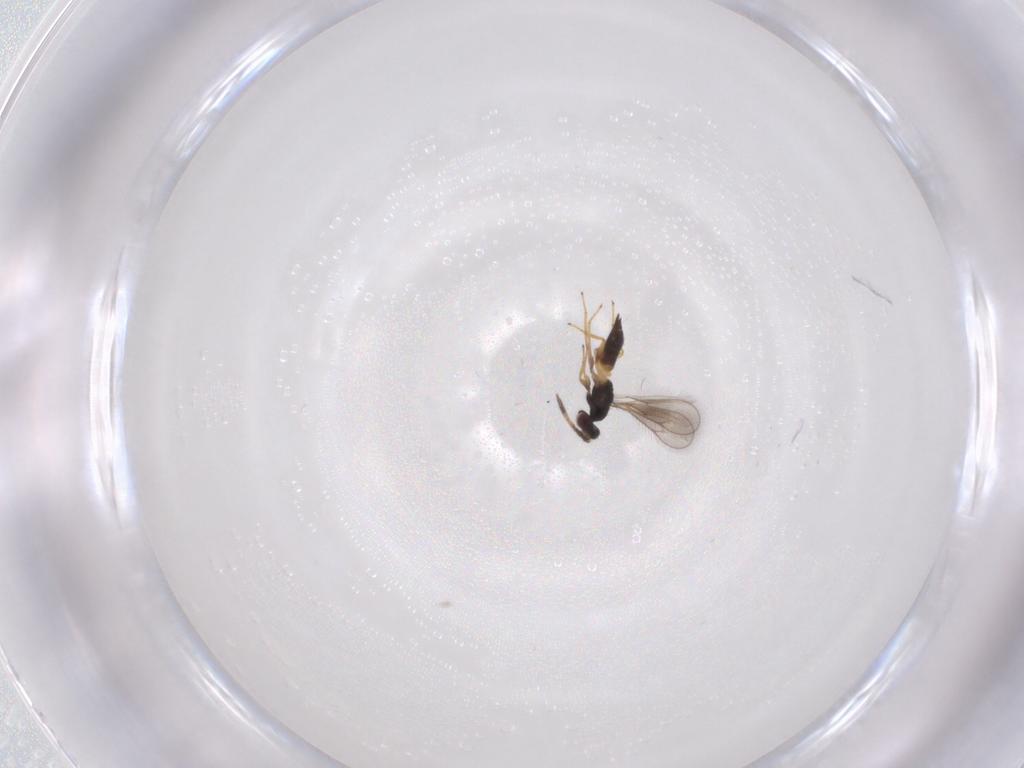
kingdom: Animalia
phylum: Arthropoda
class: Insecta
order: Hymenoptera
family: Eulophidae
